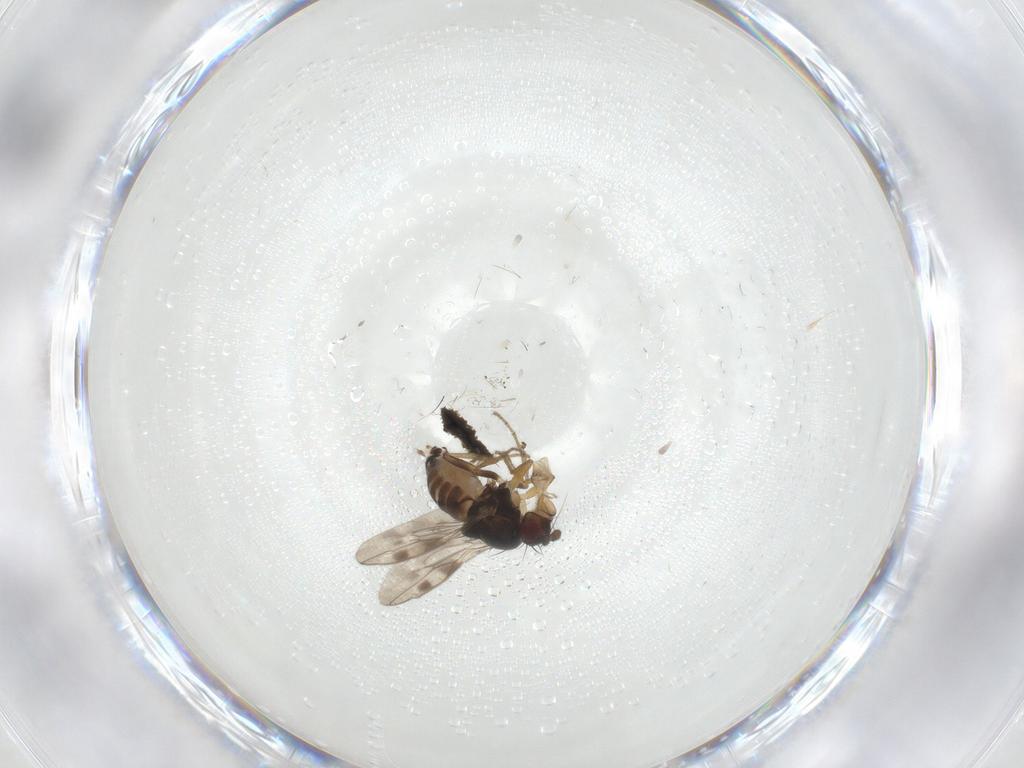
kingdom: Animalia
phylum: Arthropoda
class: Insecta
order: Diptera
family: Sphaeroceridae
